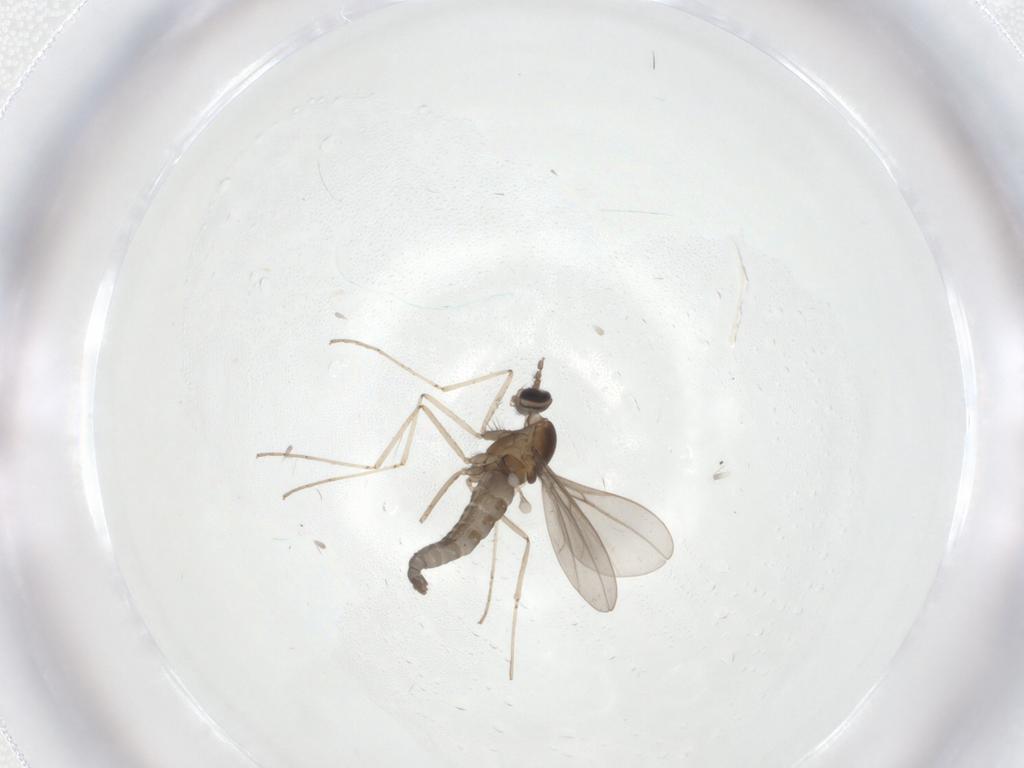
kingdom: Animalia
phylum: Arthropoda
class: Insecta
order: Diptera
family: Cecidomyiidae
